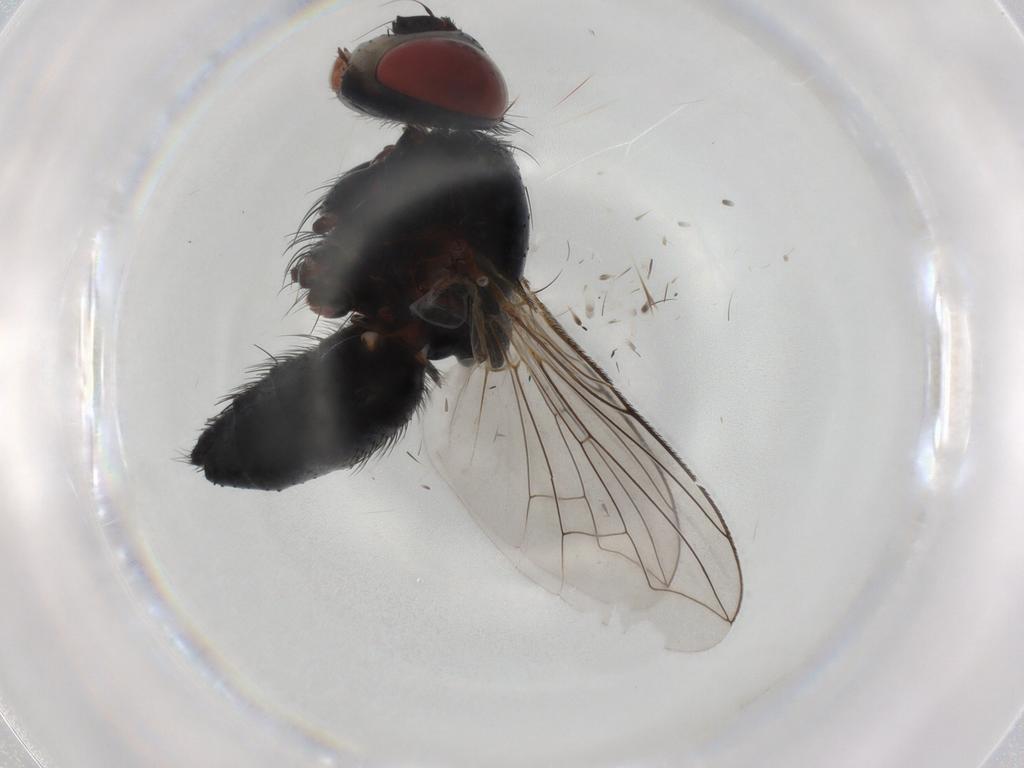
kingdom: Animalia
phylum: Arthropoda
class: Insecta
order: Diptera
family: Tachinidae
